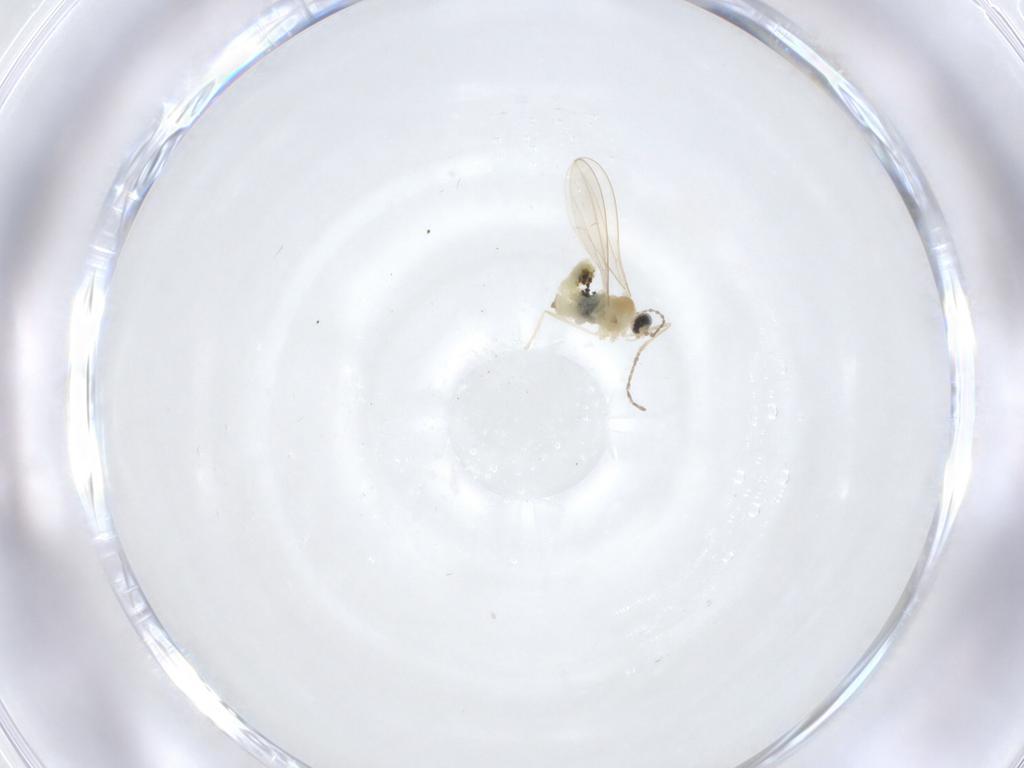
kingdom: Animalia
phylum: Arthropoda
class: Insecta
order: Diptera
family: Cecidomyiidae
